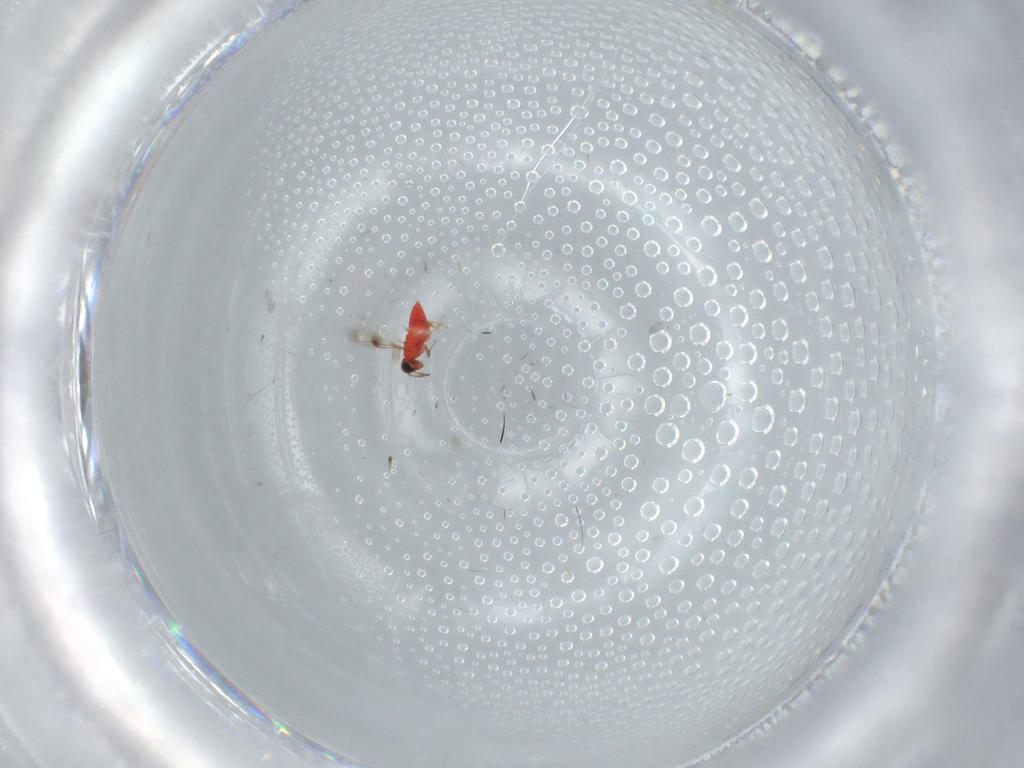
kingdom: Animalia
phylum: Arthropoda
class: Insecta
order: Hymenoptera
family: Trichogrammatidae
